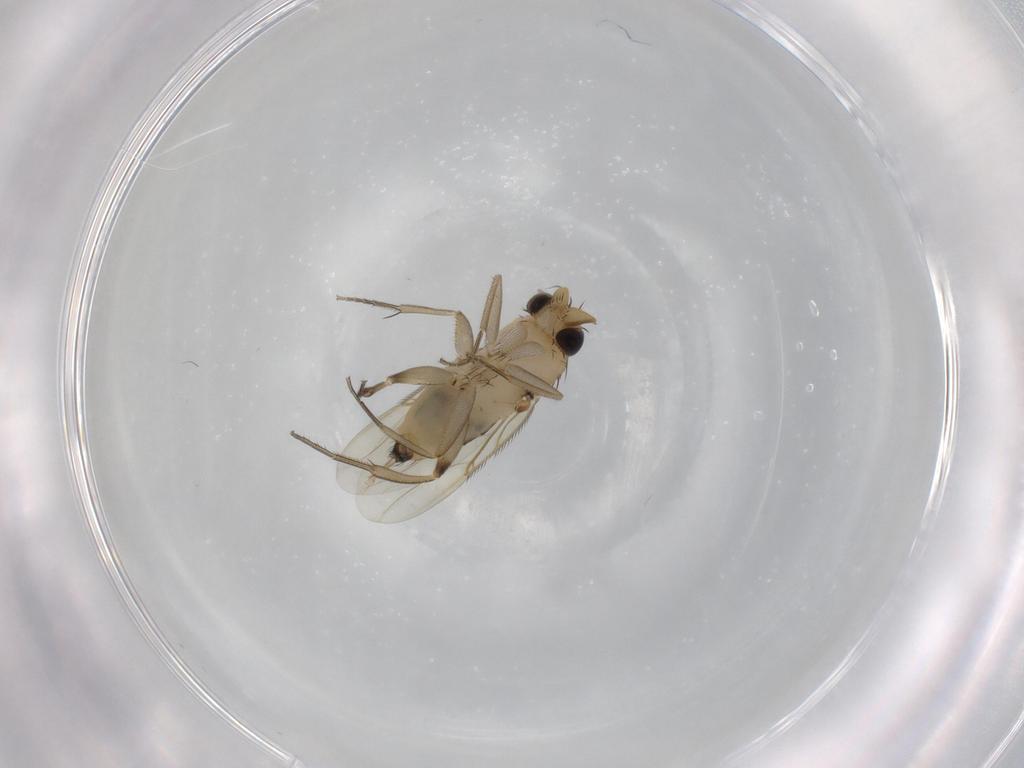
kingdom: Animalia
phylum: Arthropoda
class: Insecta
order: Diptera
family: Phoridae
